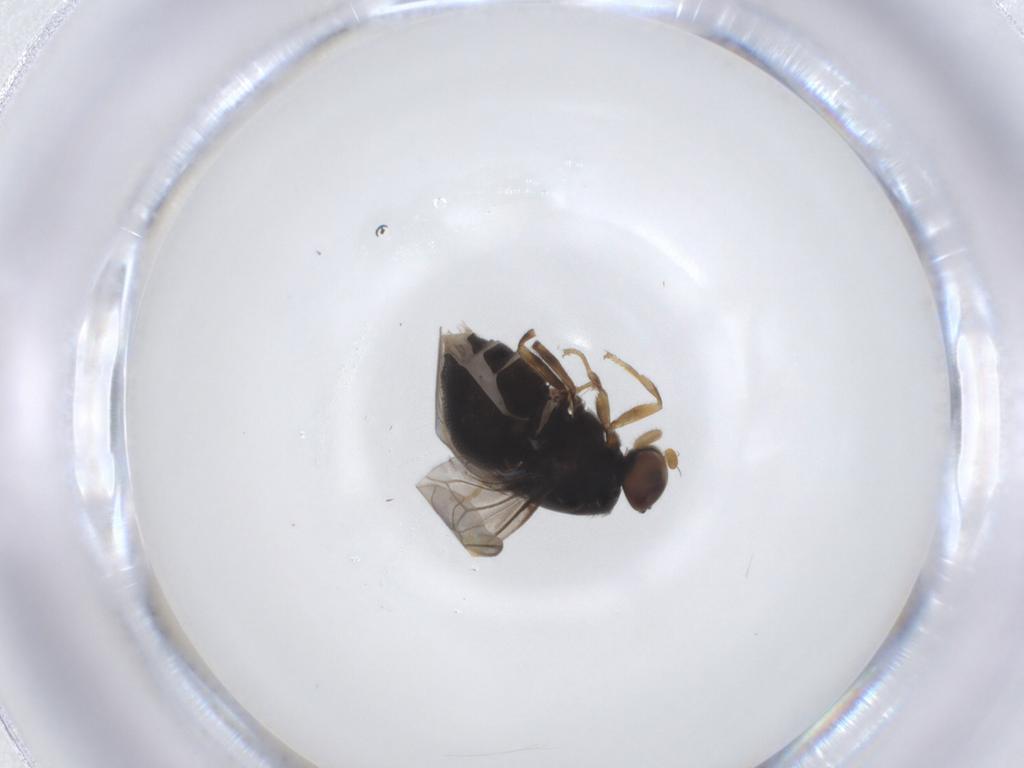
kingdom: Animalia
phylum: Arthropoda
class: Insecta
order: Diptera
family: Stratiomyidae
